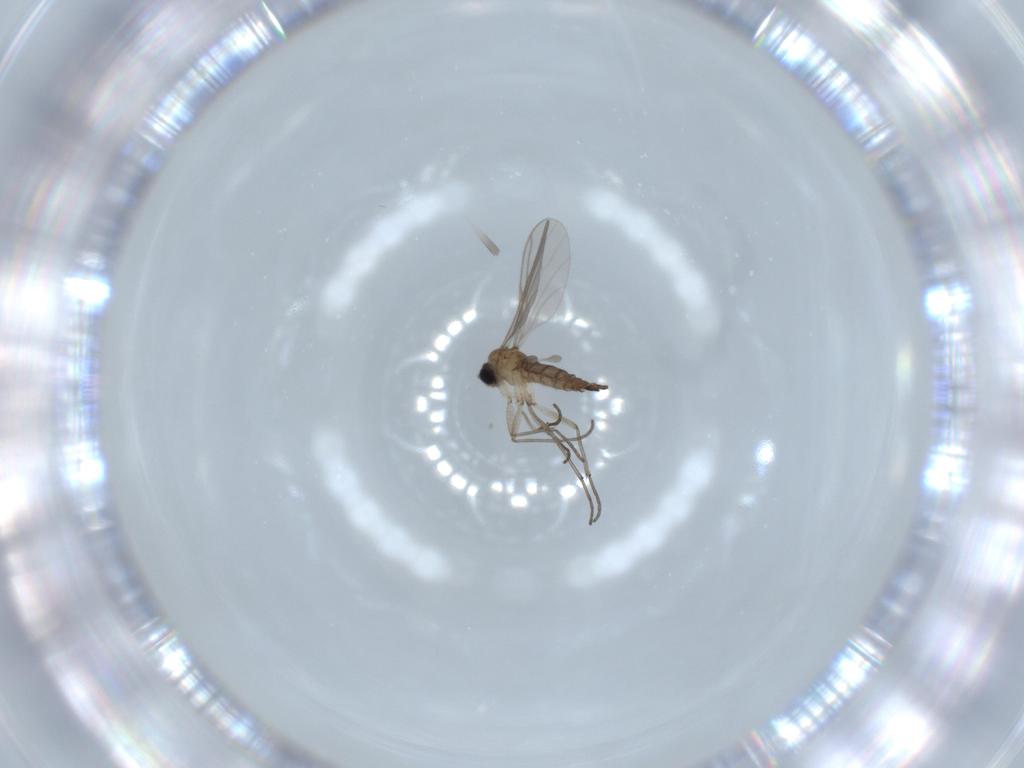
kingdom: Animalia
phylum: Arthropoda
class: Insecta
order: Diptera
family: Sciaridae
